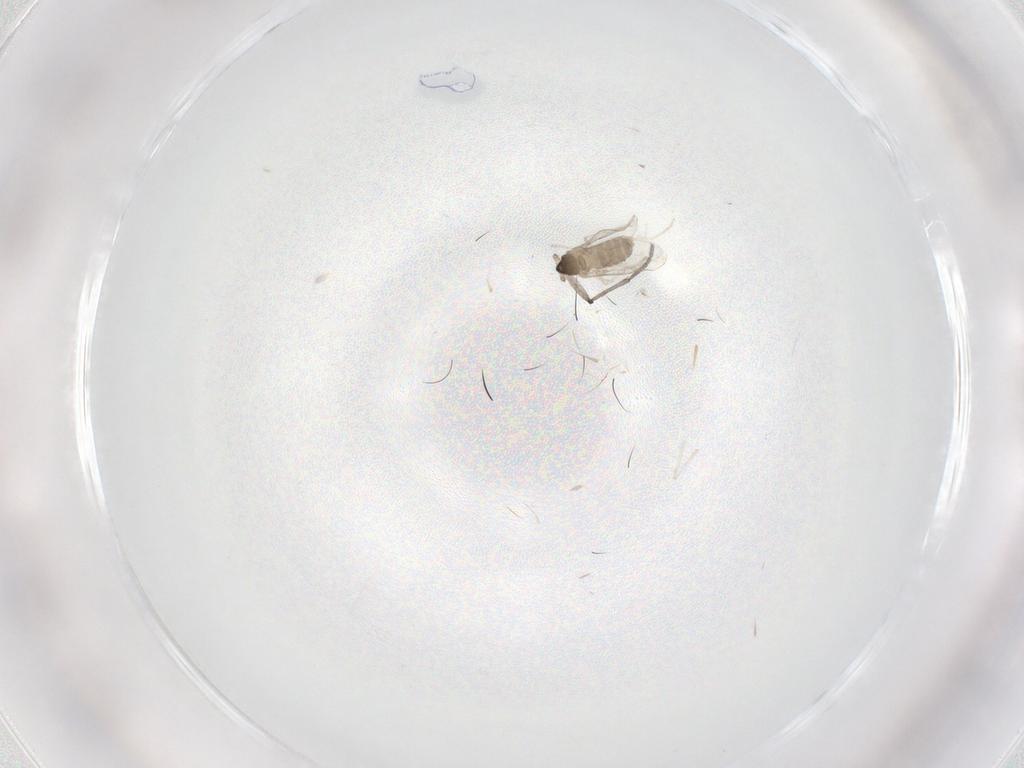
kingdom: Animalia
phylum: Arthropoda
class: Insecta
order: Diptera
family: Sciaridae
